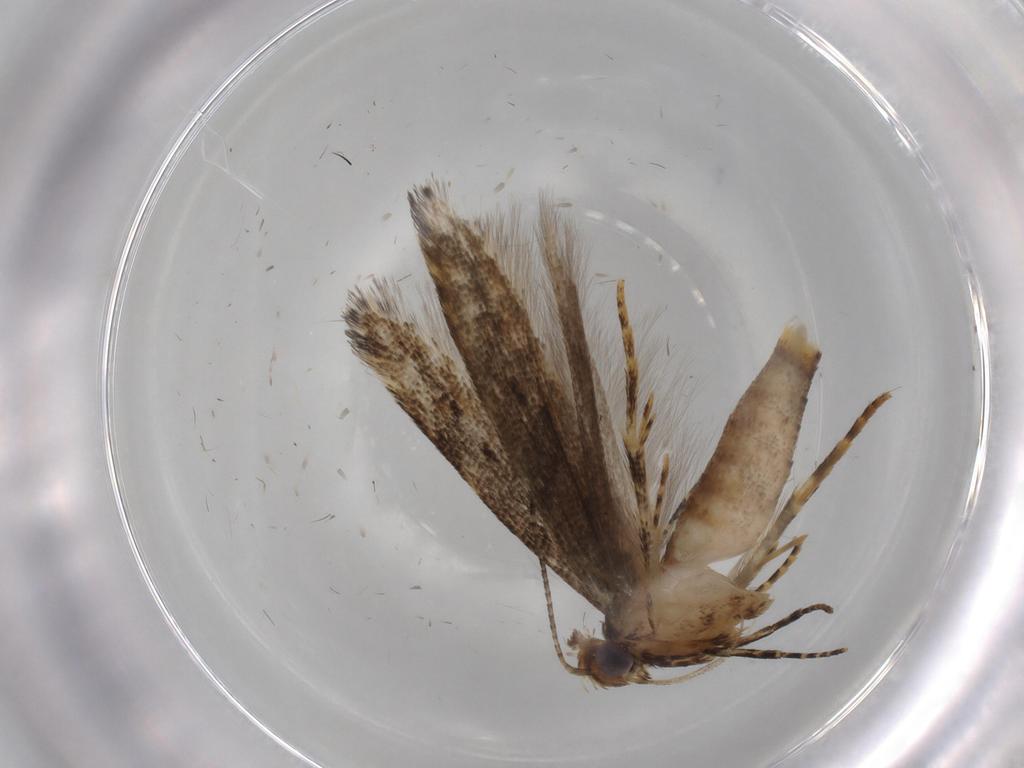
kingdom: Animalia
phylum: Arthropoda
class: Insecta
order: Lepidoptera
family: Gelechiidae
